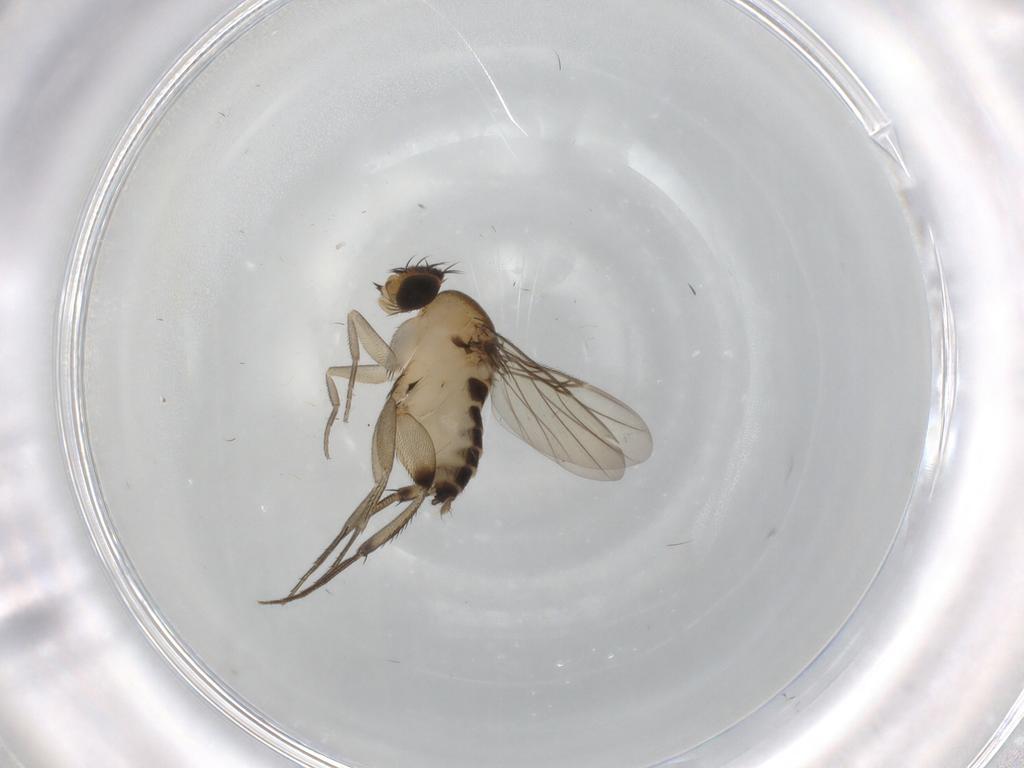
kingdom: Animalia
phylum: Arthropoda
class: Insecta
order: Diptera
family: Phoridae
